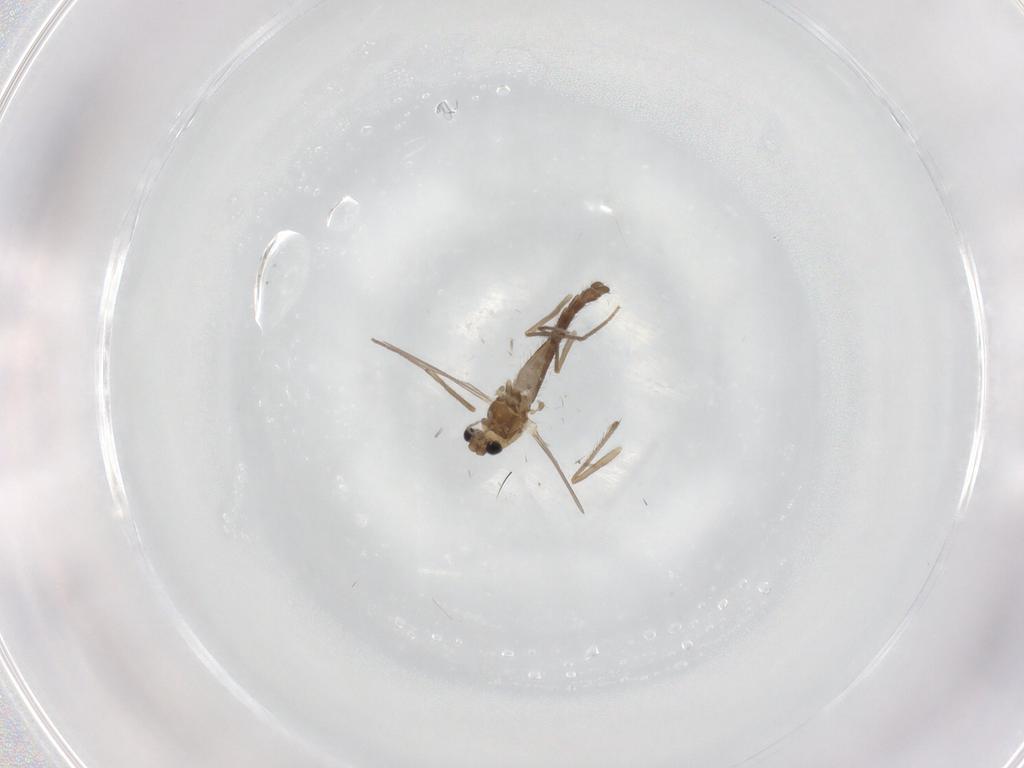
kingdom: Animalia
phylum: Arthropoda
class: Insecta
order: Diptera
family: Chironomidae
